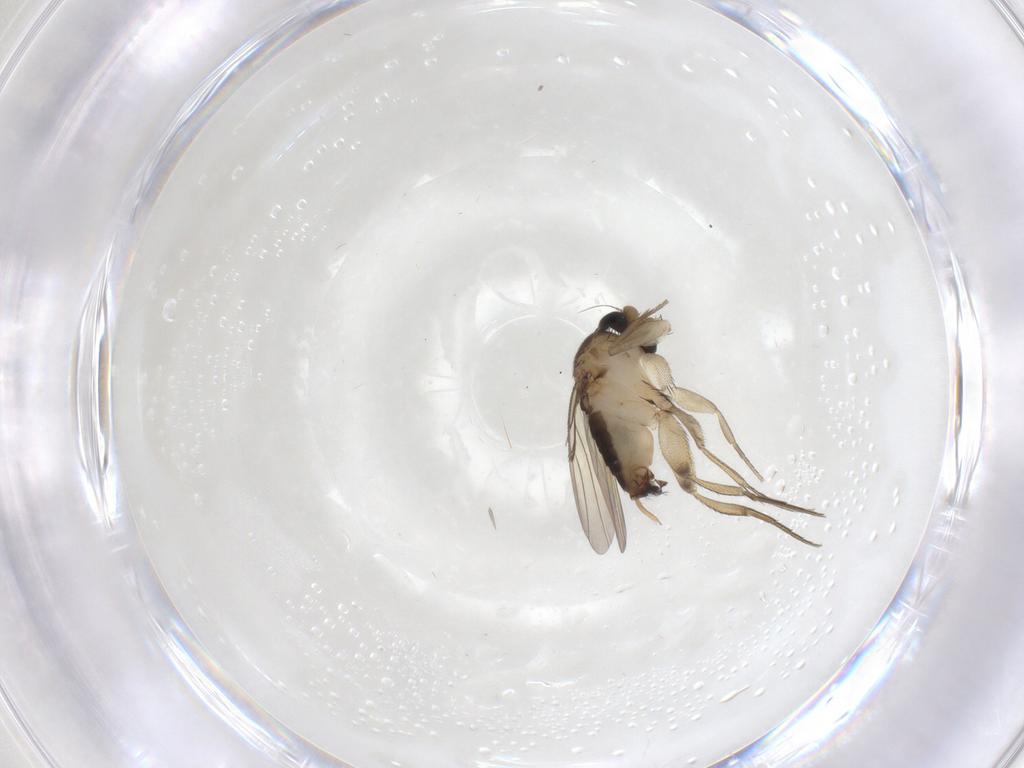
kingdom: Animalia
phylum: Arthropoda
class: Insecta
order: Diptera
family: Phoridae
